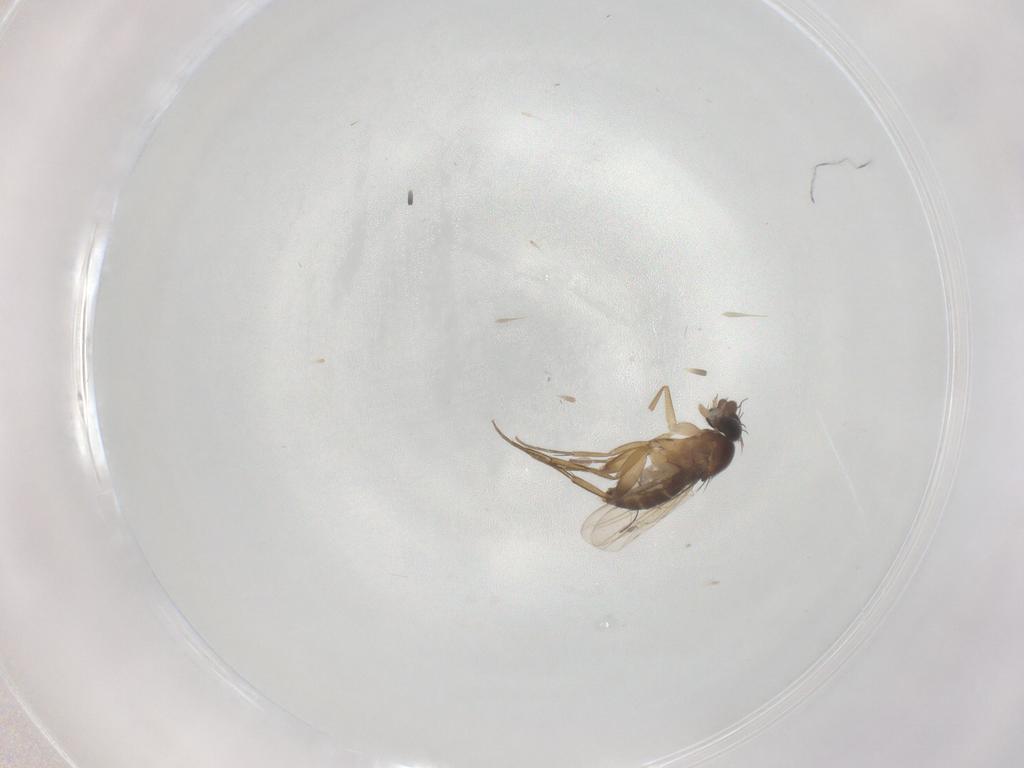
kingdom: Animalia
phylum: Arthropoda
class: Insecta
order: Diptera
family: Phoridae
